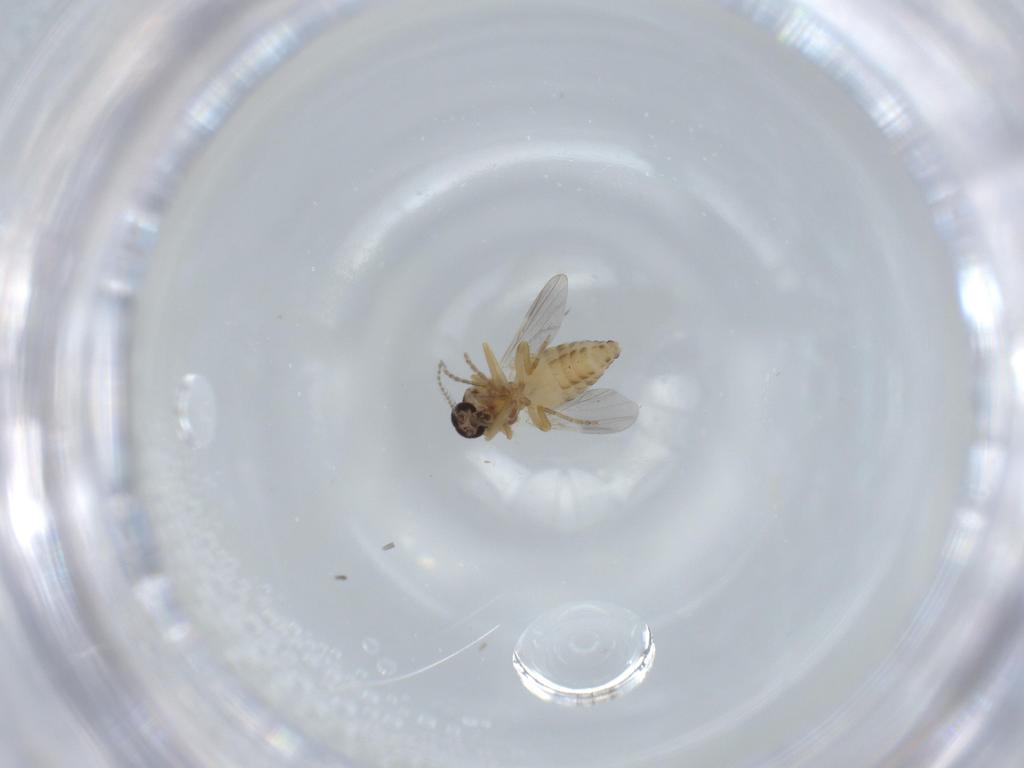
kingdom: Animalia
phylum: Arthropoda
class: Insecta
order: Diptera
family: Ceratopogonidae
